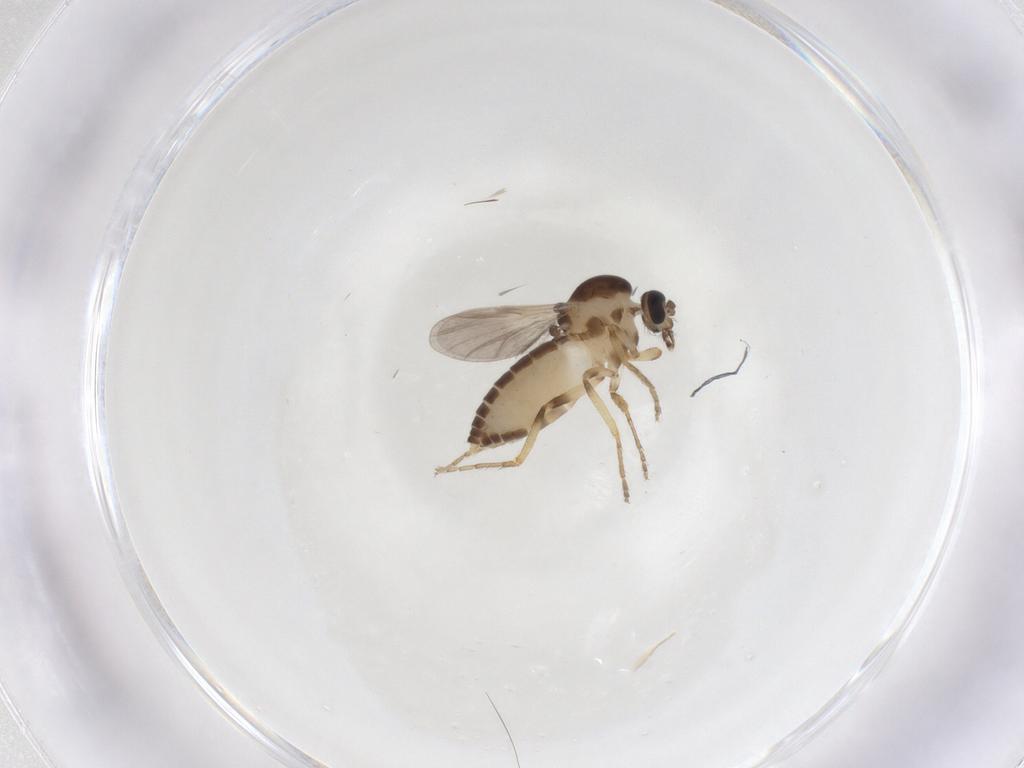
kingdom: Animalia
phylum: Arthropoda
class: Insecta
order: Diptera
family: Ceratopogonidae
